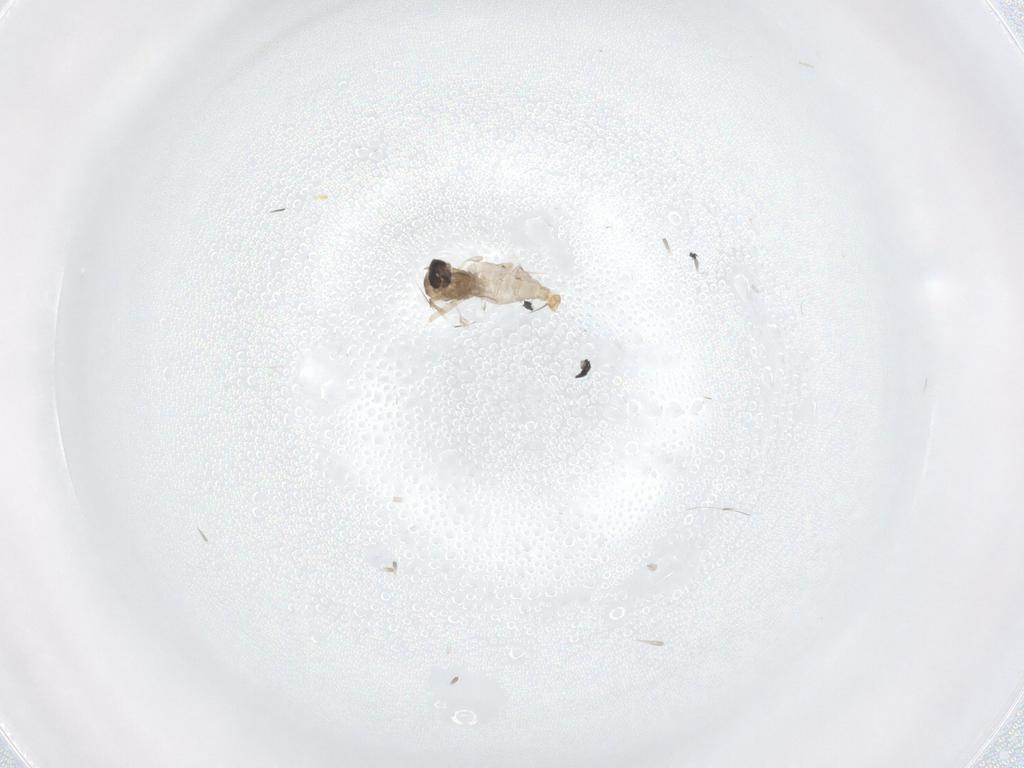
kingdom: Animalia
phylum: Arthropoda
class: Insecta
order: Diptera
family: Cecidomyiidae
